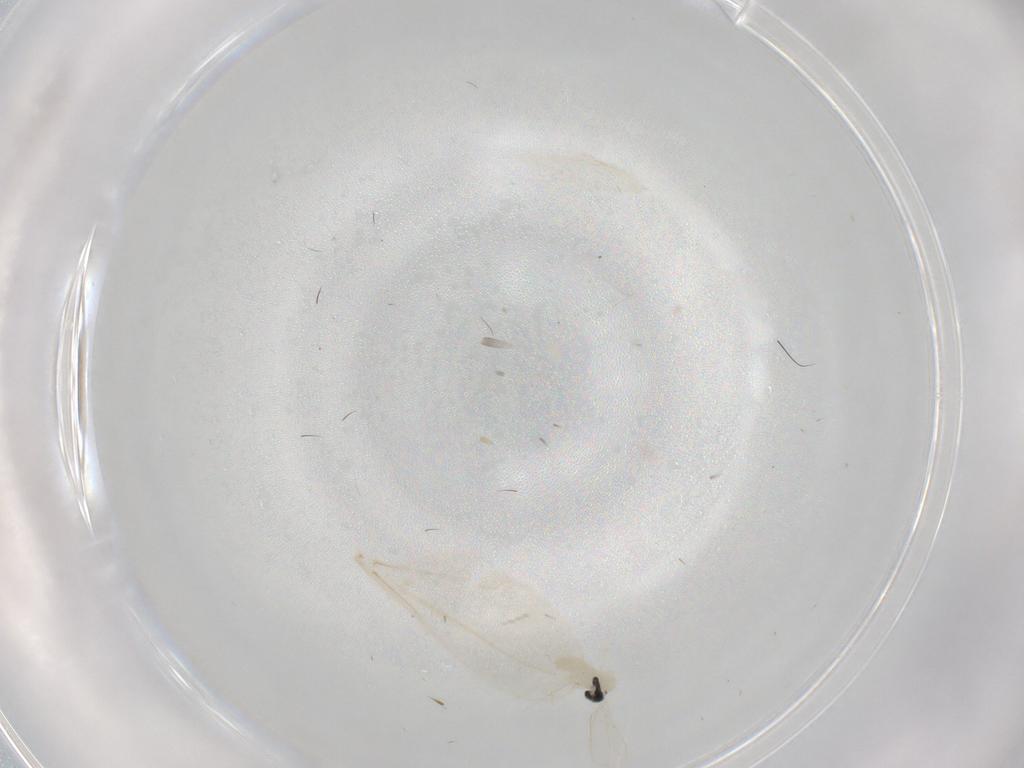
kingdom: Animalia
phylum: Arthropoda
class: Insecta
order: Diptera
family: Cecidomyiidae
